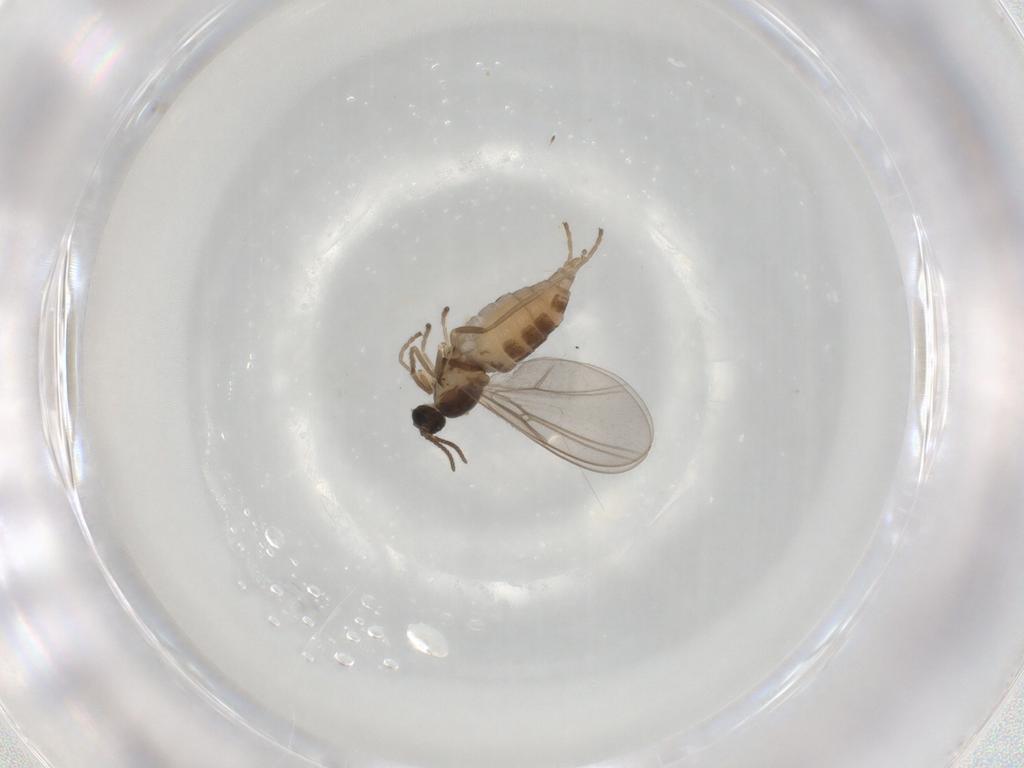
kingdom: Animalia
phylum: Arthropoda
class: Insecta
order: Diptera
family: Cecidomyiidae
